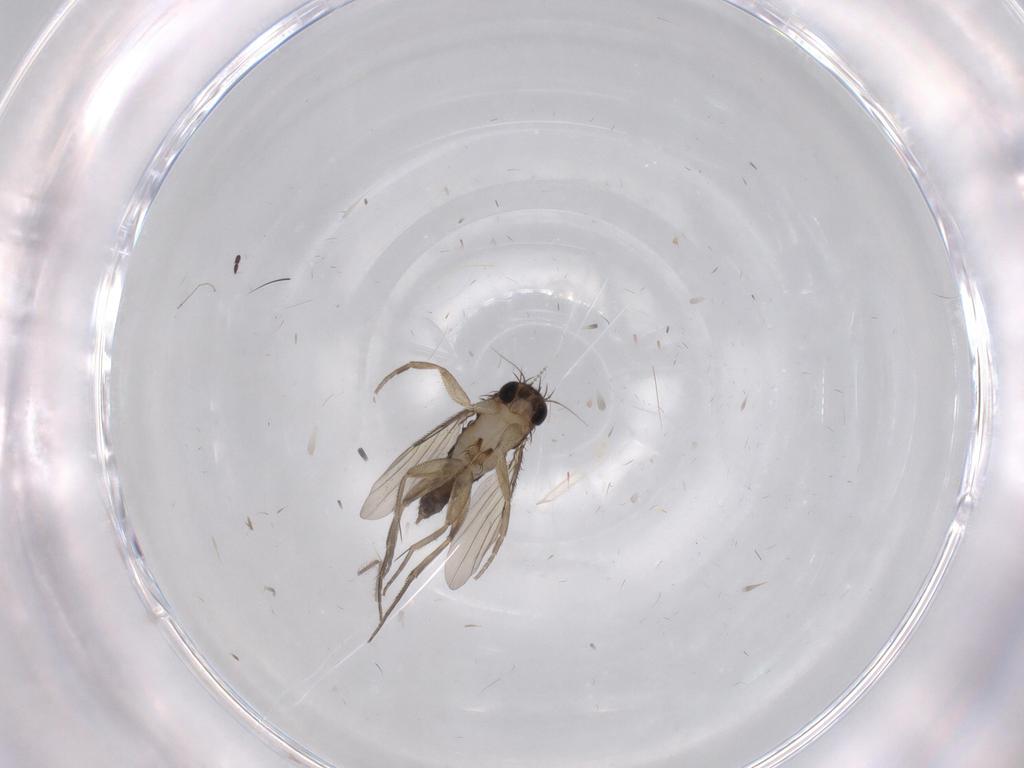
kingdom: Animalia
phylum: Arthropoda
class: Insecta
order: Diptera
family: Phoridae
